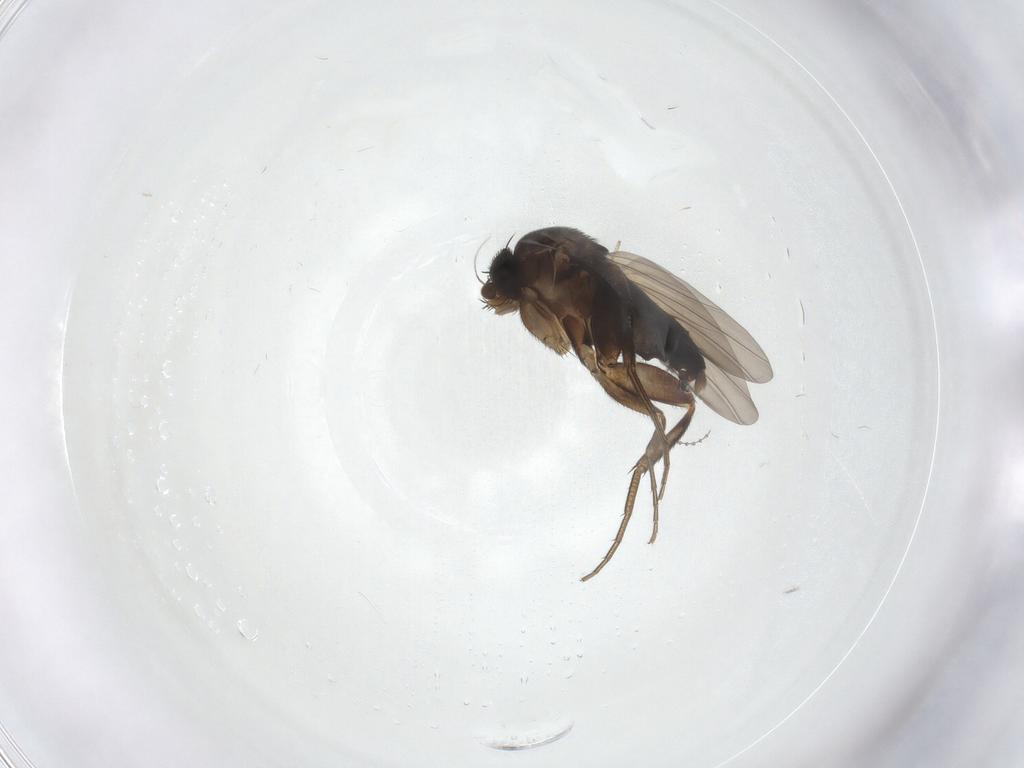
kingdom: Animalia
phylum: Arthropoda
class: Insecta
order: Diptera
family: Phoridae
